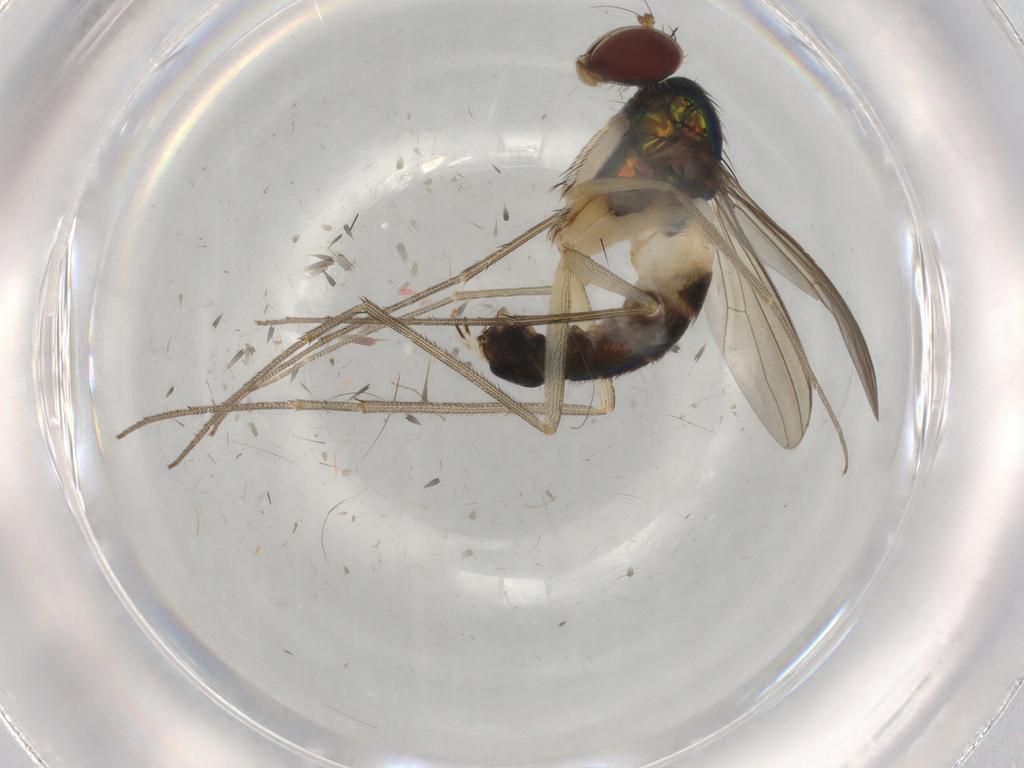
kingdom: Animalia
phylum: Arthropoda
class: Insecta
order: Diptera
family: Dolichopodidae
